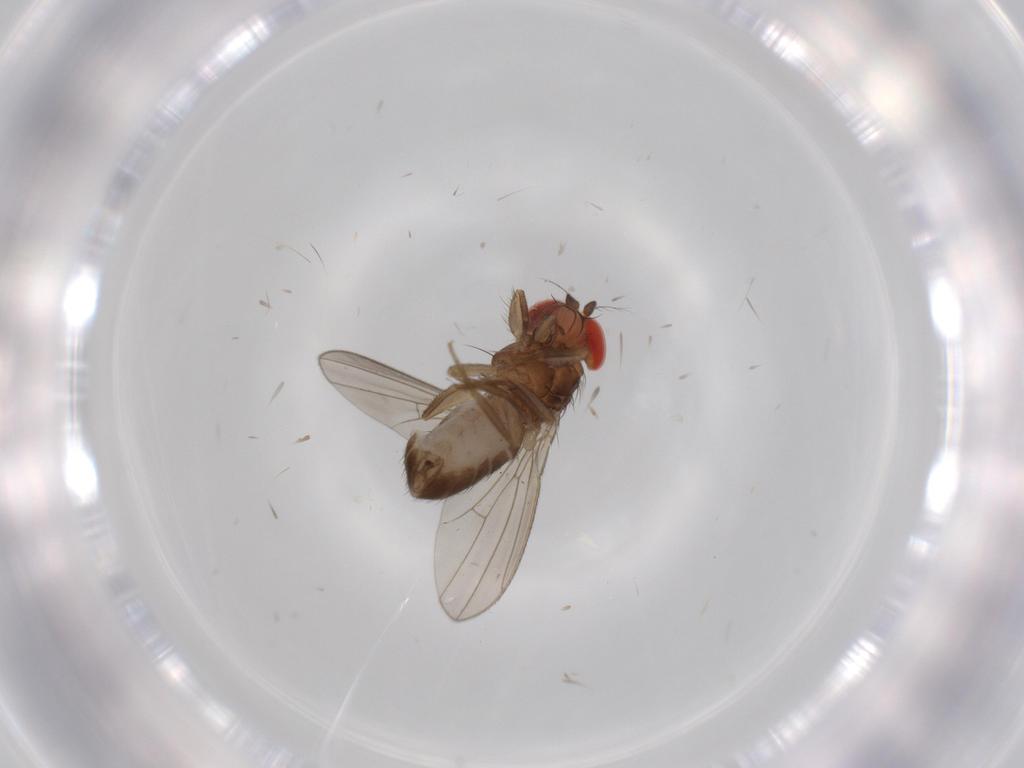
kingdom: Animalia
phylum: Arthropoda
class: Insecta
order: Diptera
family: Drosophilidae
